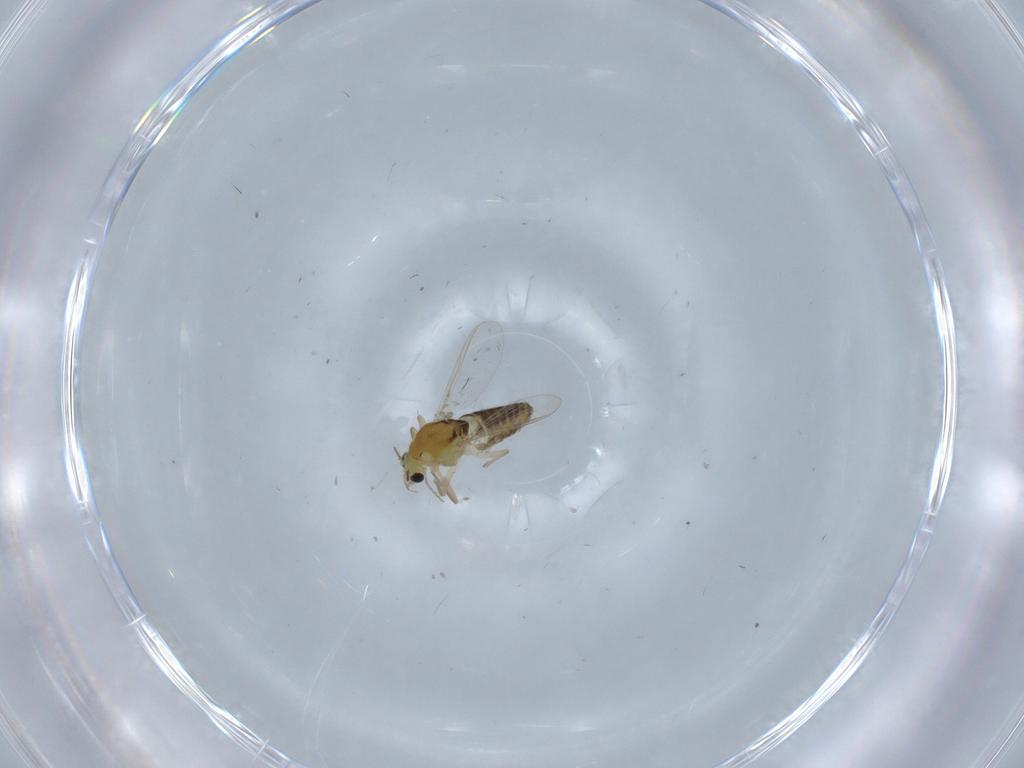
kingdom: Animalia
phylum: Arthropoda
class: Insecta
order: Diptera
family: Chironomidae
